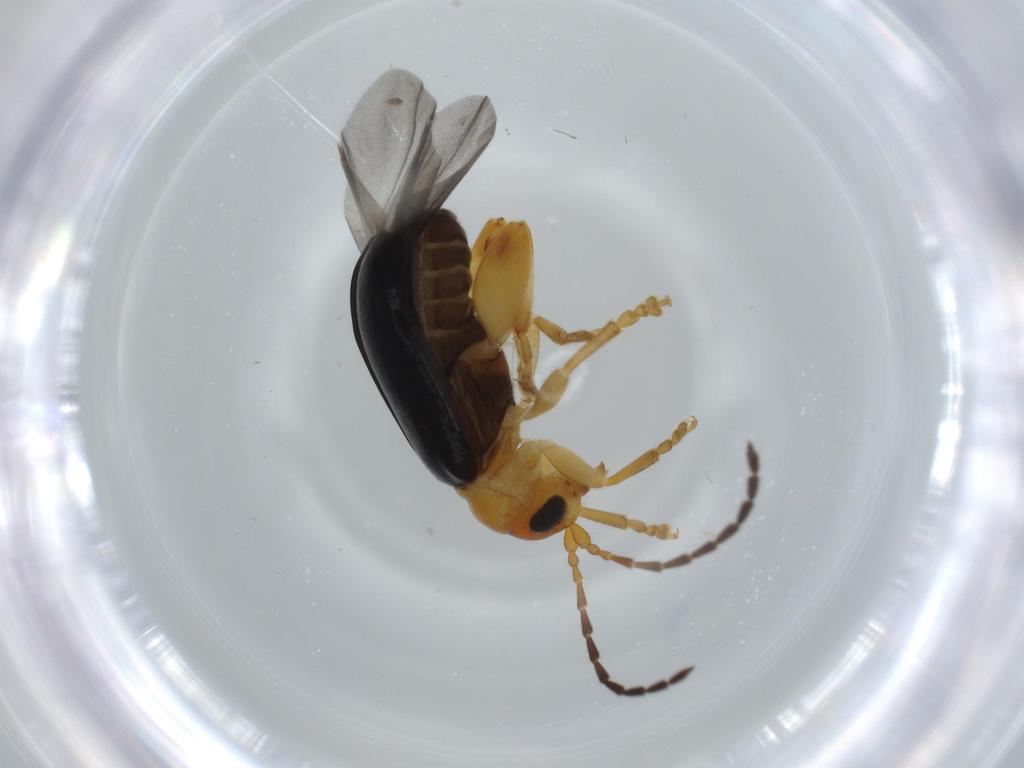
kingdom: Animalia
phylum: Arthropoda
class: Insecta
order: Coleoptera
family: Chrysomelidae
